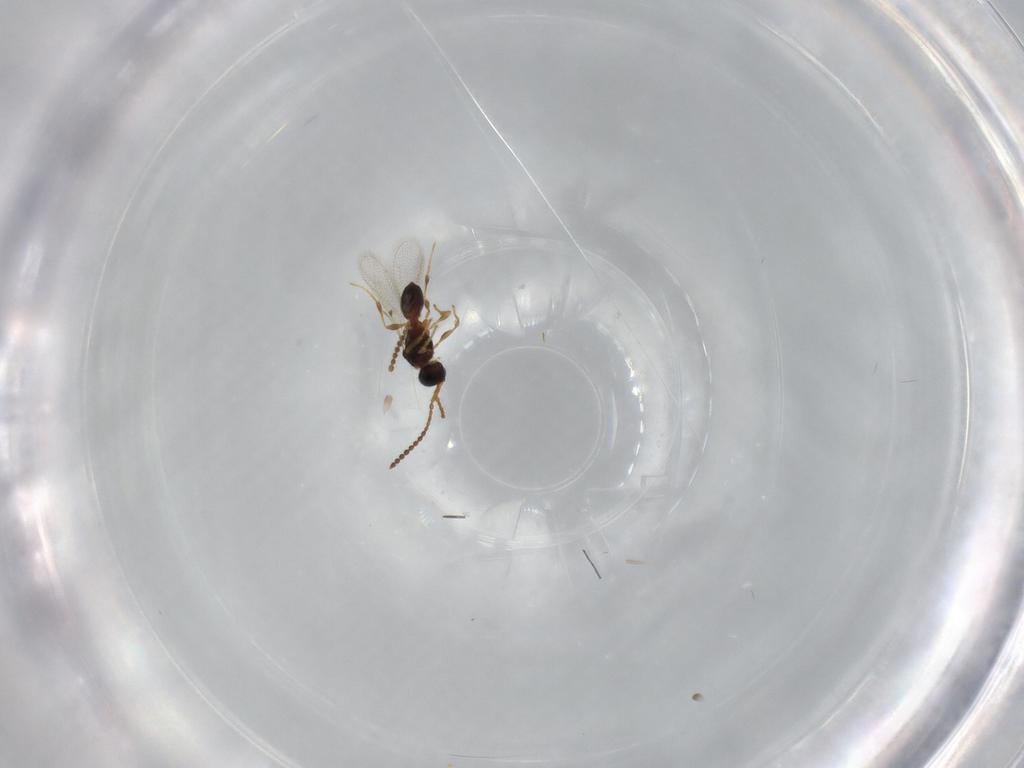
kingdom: Animalia
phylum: Arthropoda
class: Insecta
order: Hymenoptera
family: Diapriidae
